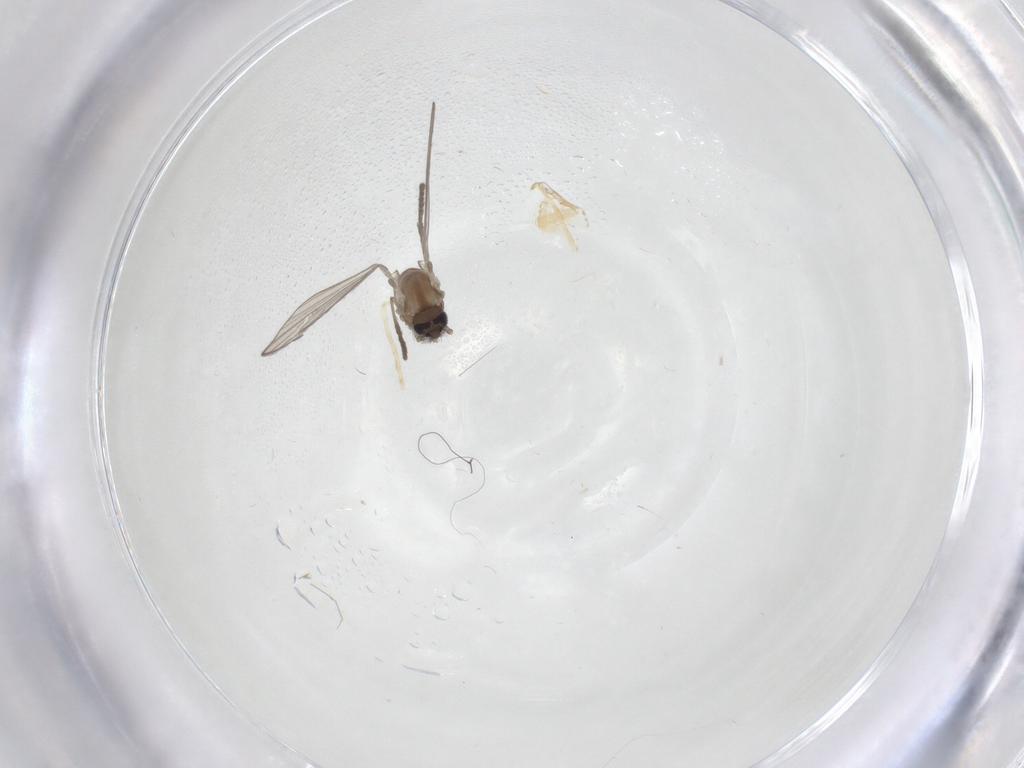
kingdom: Animalia
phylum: Arthropoda
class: Insecta
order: Diptera
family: Psychodidae
